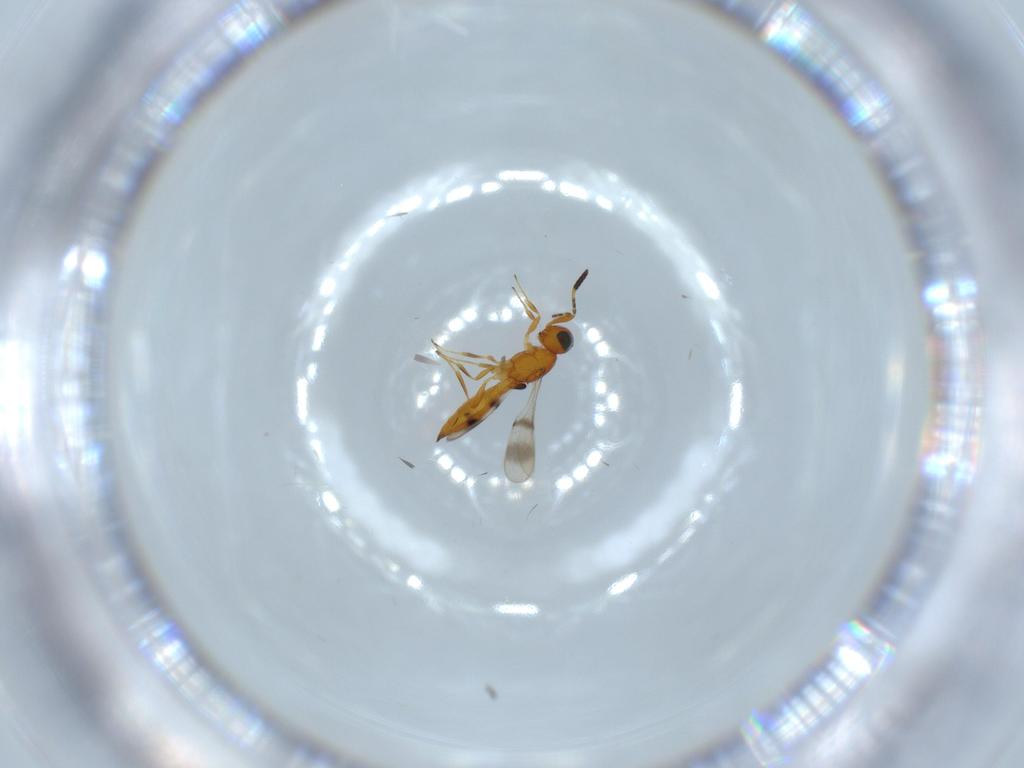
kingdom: Animalia
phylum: Arthropoda
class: Insecta
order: Hymenoptera
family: Scelionidae
